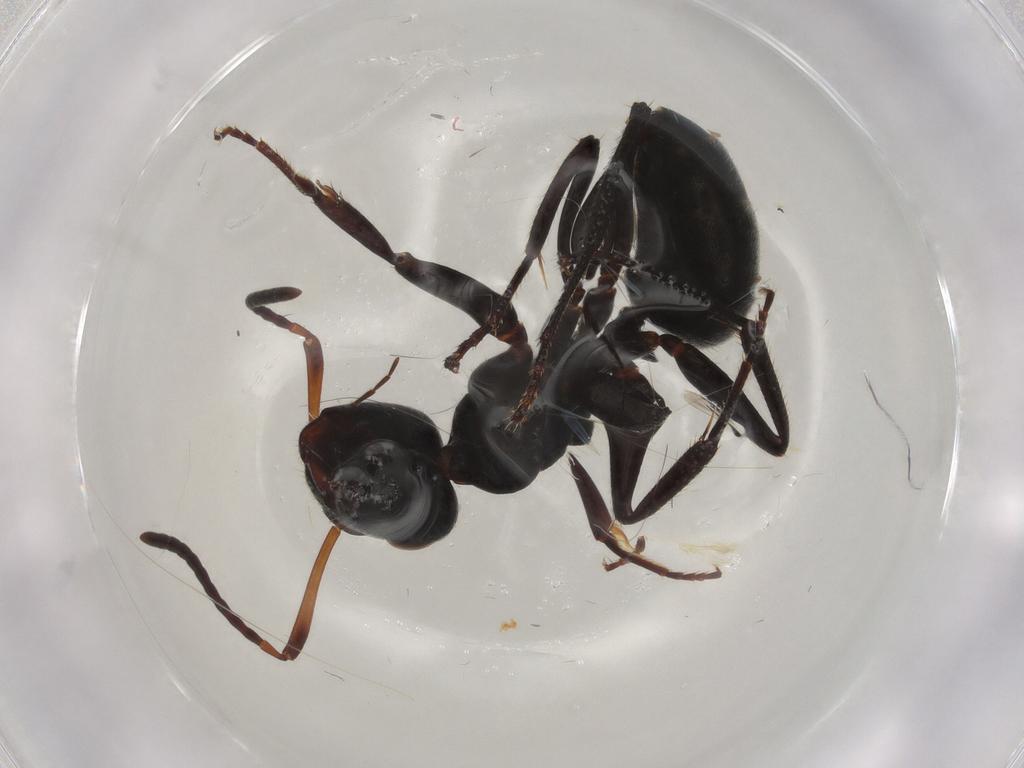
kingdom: Animalia
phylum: Arthropoda
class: Insecta
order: Hymenoptera
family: Formicidae
